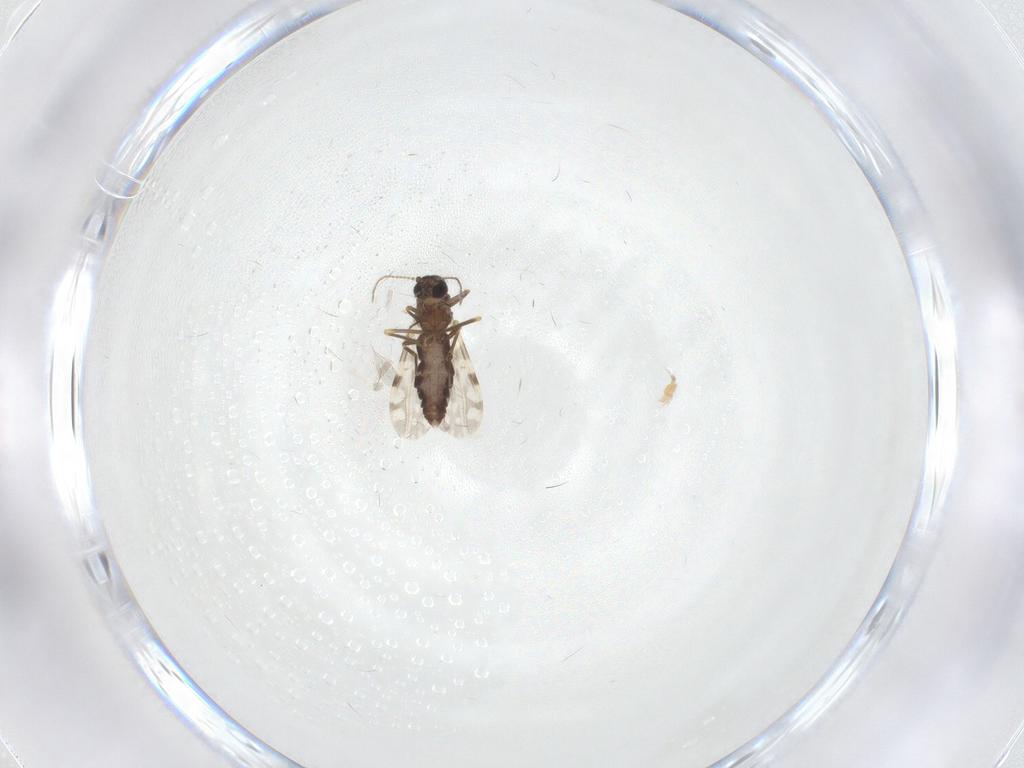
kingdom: Animalia
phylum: Arthropoda
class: Insecta
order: Diptera
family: Ceratopogonidae
